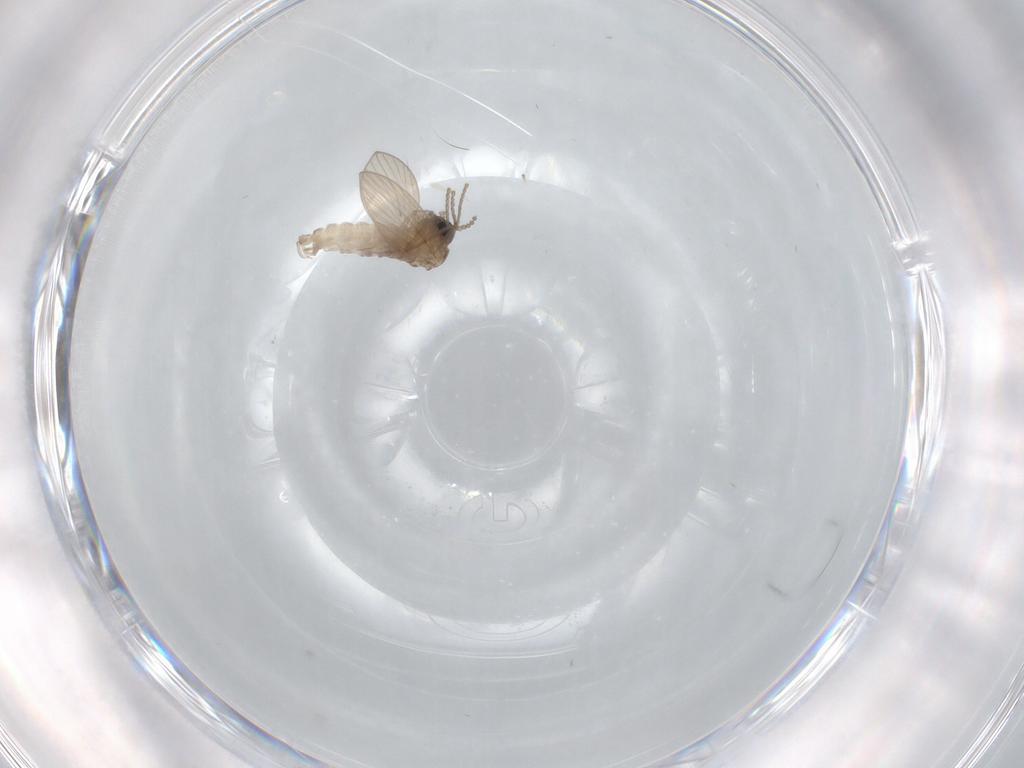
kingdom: Animalia
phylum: Arthropoda
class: Insecta
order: Diptera
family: Psychodidae
